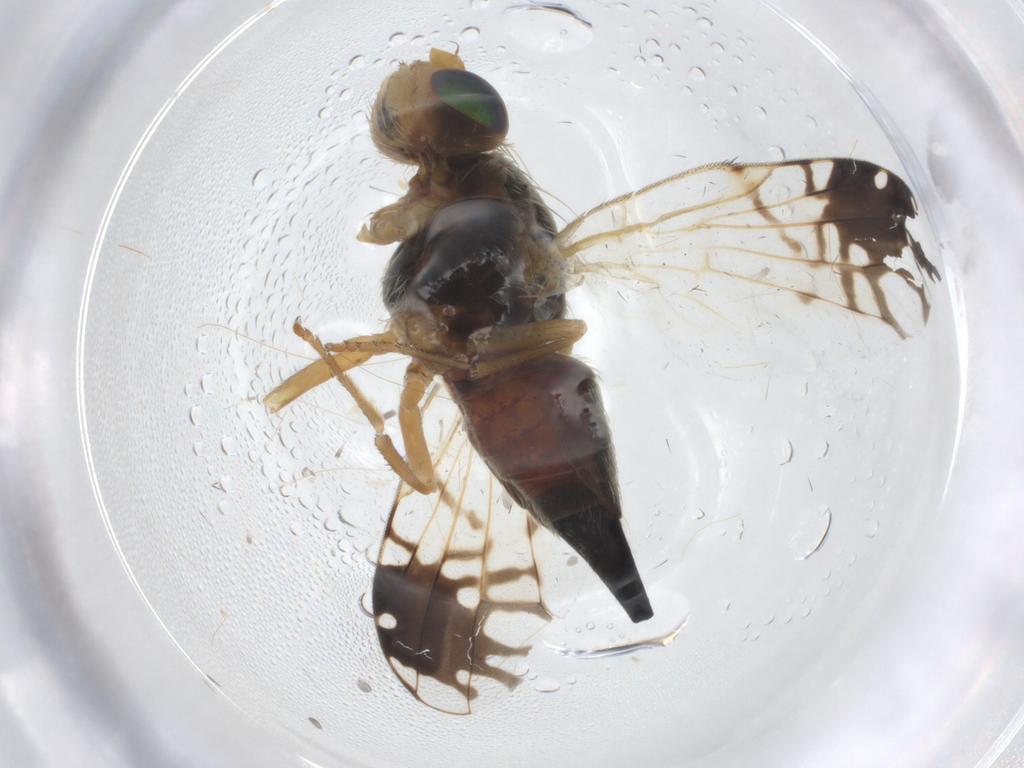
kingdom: Animalia
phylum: Arthropoda
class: Insecta
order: Diptera
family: Tephritidae
